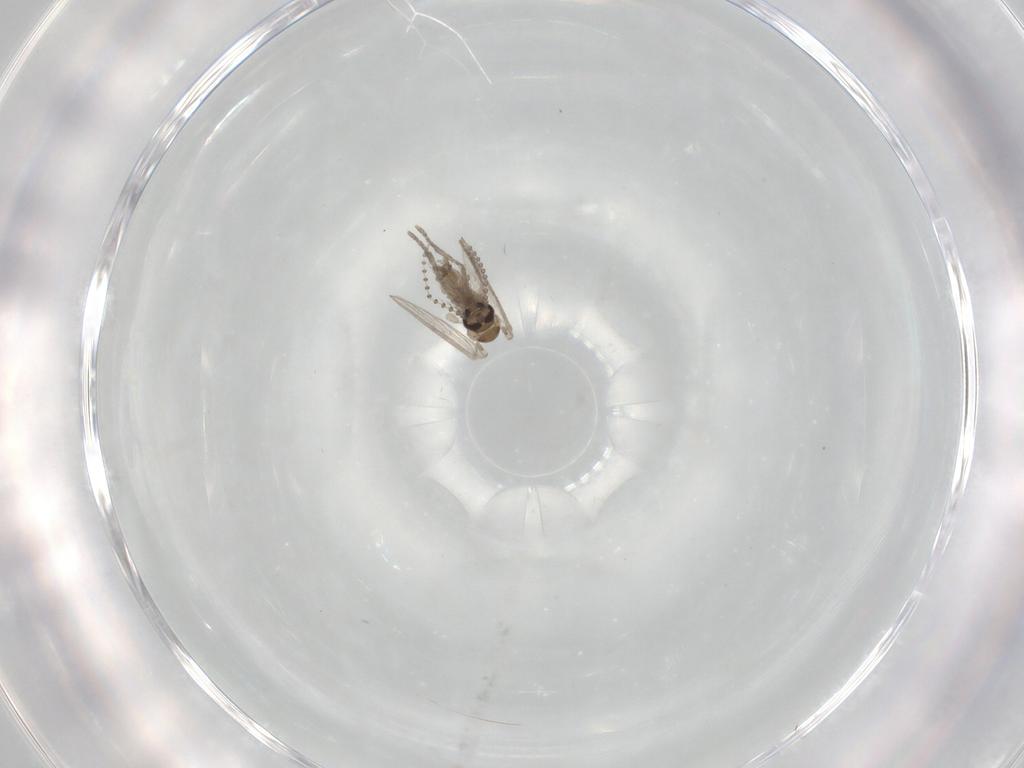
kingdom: Animalia
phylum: Arthropoda
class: Insecta
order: Diptera
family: Psychodidae
